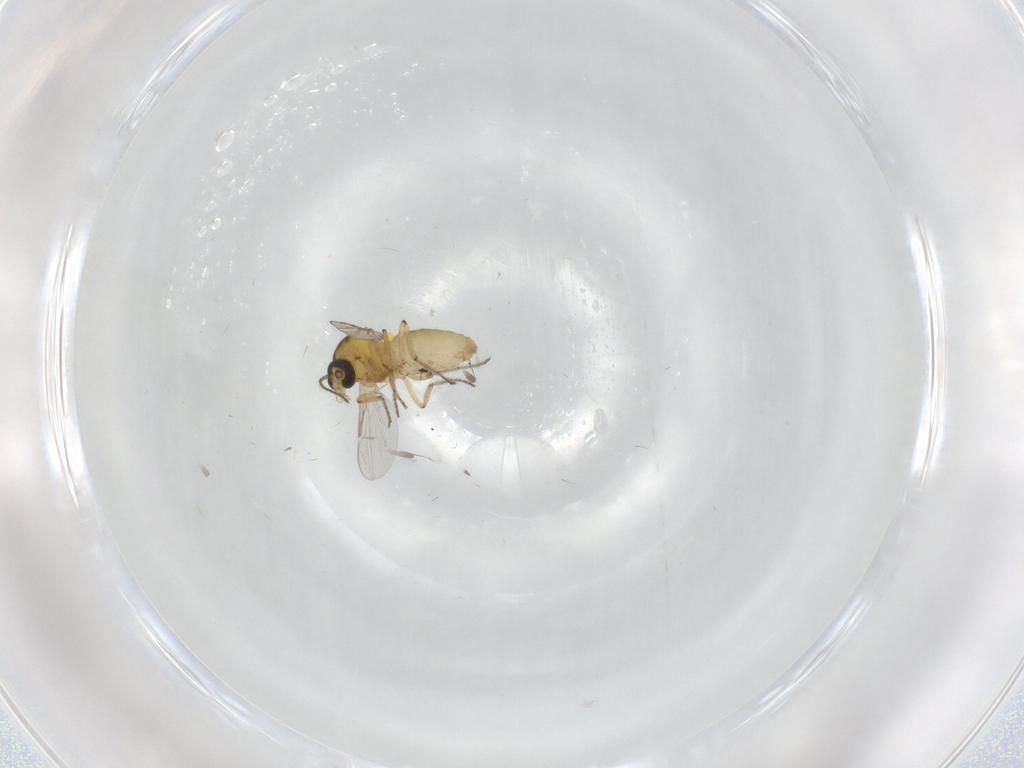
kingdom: Animalia
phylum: Arthropoda
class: Insecta
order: Diptera
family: Ceratopogonidae
